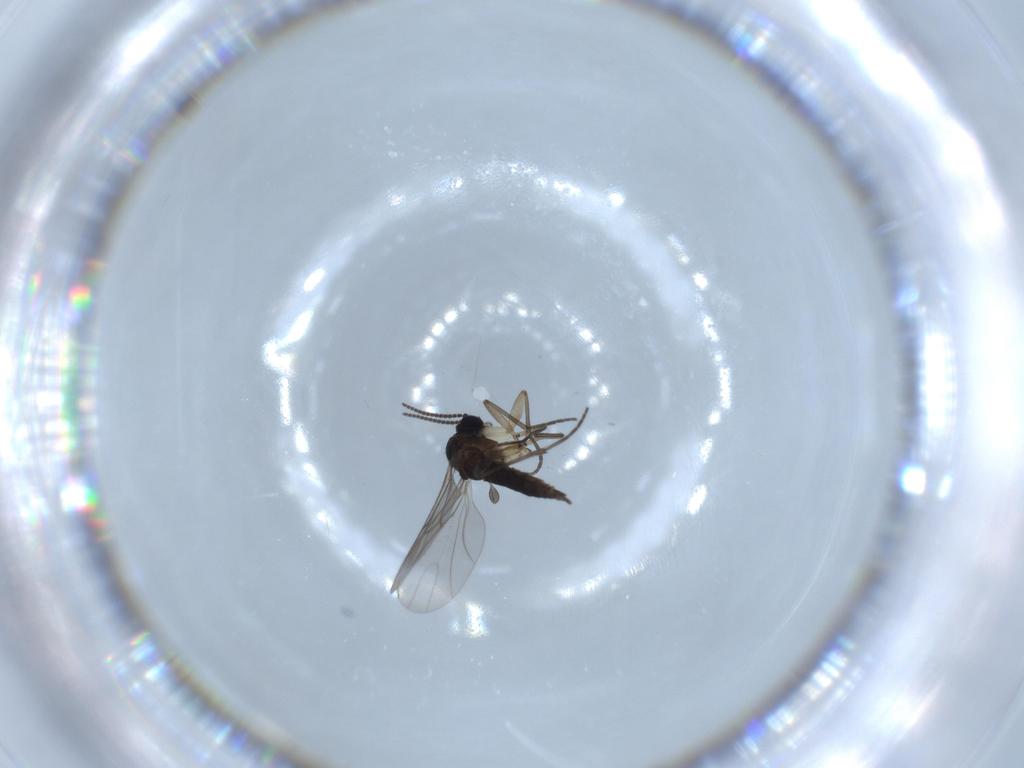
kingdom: Animalia
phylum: Arthropoda
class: Insecta
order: Diptera
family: Sciaridae
